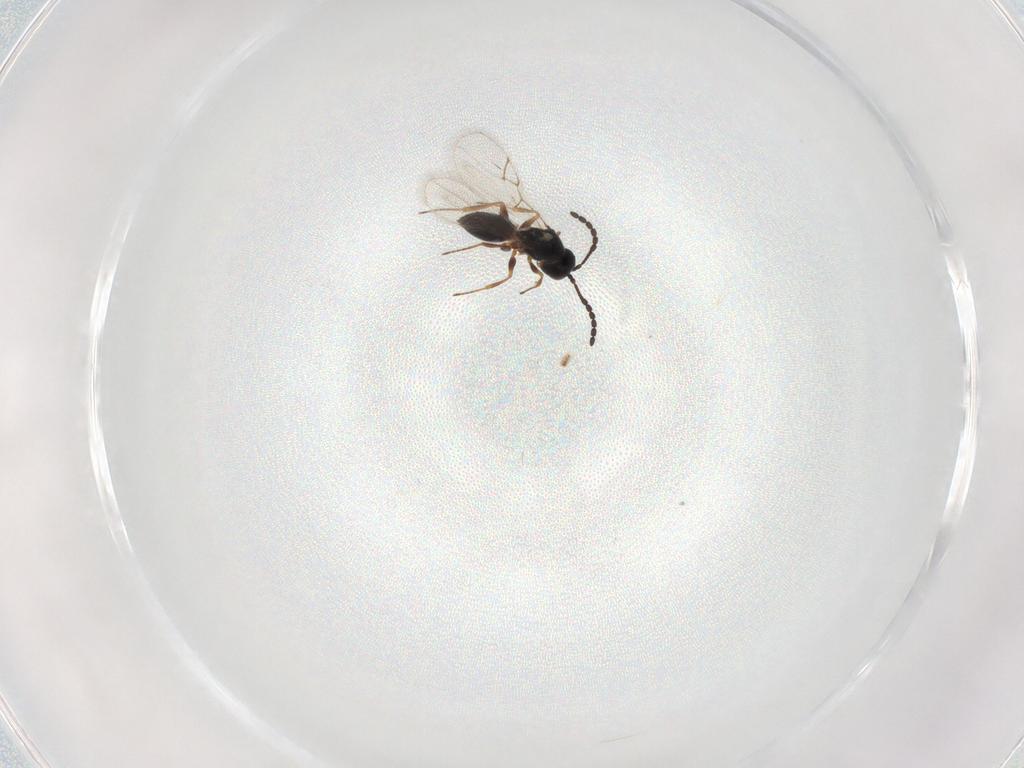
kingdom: Animalia
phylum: Arthropoda
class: Insecta
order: Hymenoptera
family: Figitidae
